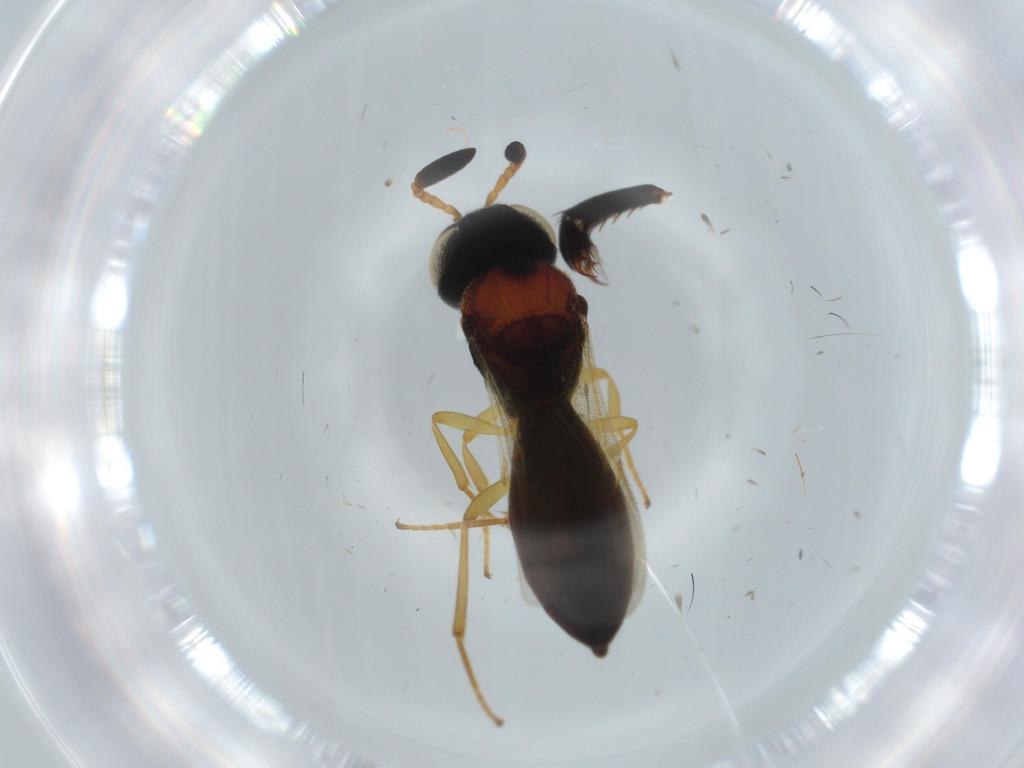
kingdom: Animalia
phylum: Arthropoda
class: Insecta
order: Hymenoptera
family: Pompilidae
